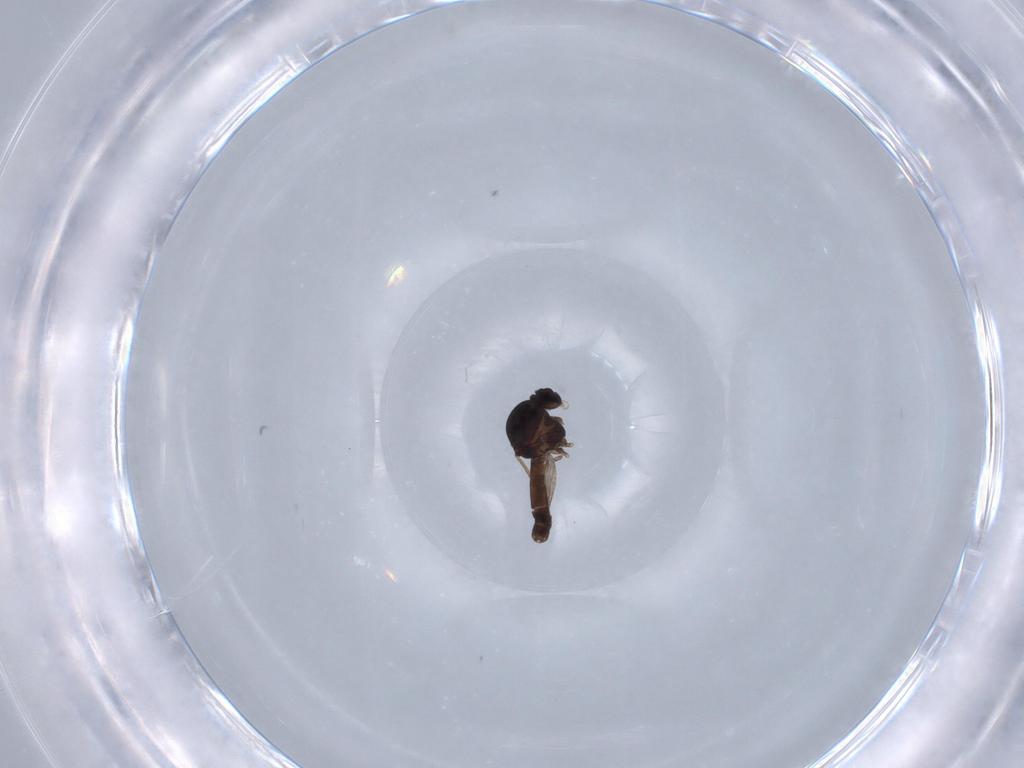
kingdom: Animalia
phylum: Arthropoda
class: Insecta
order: Diptera
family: Ceratopogonidae
